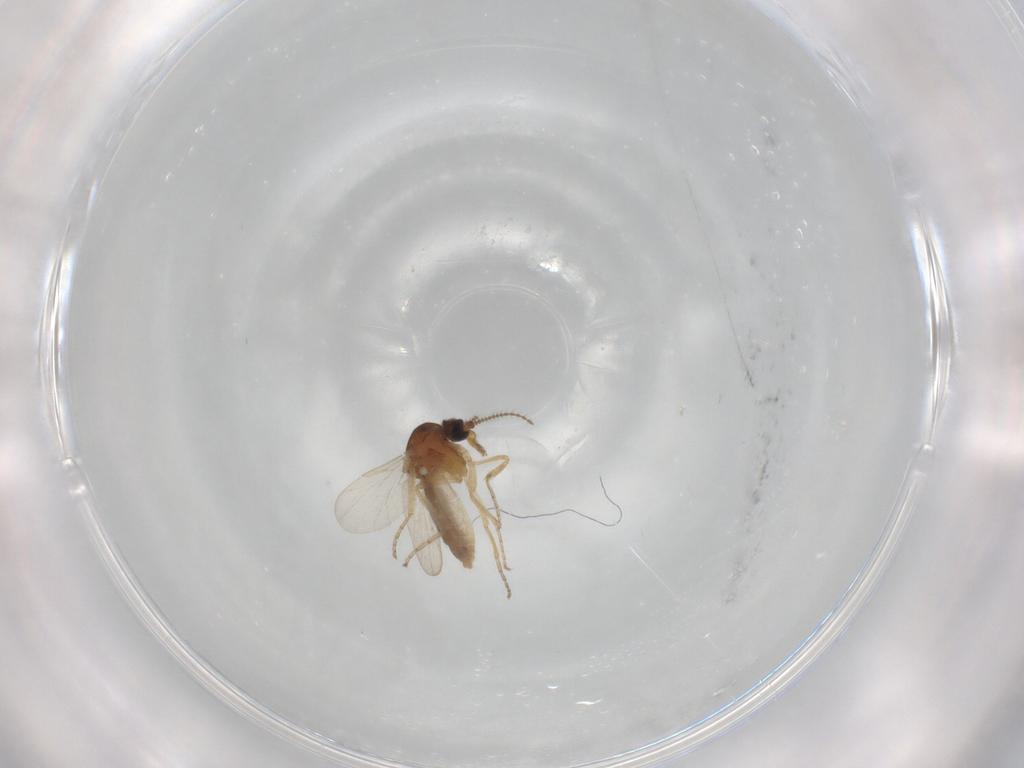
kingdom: Animalia
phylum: Arthropoda
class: Insecta
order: Diptera
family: Ceratopogonidae
